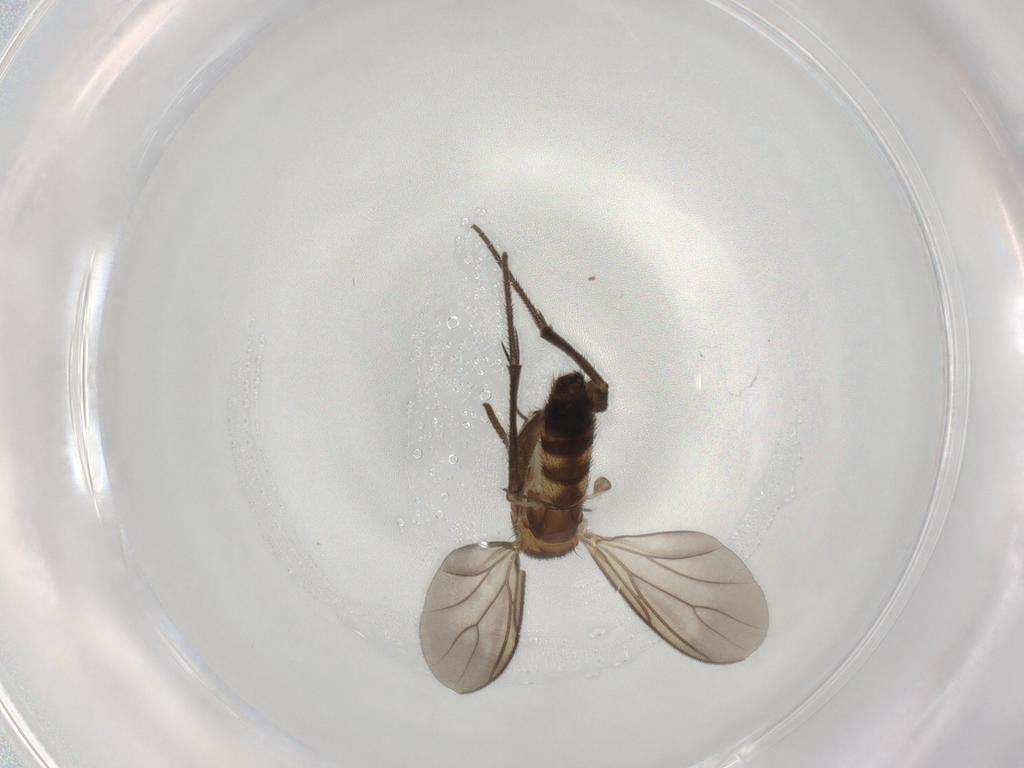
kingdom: Animalia
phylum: Arthropoda
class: Insecta
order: Diptera
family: Mycetophilidae
